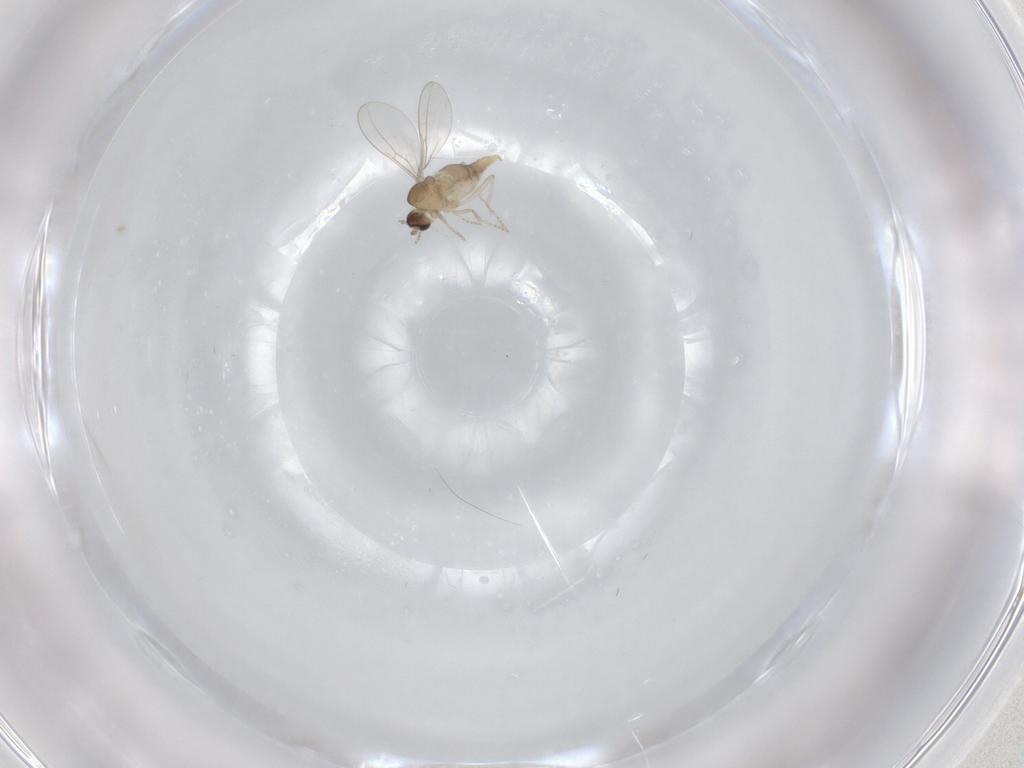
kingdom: Animalia
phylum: Arthropoda
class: Insecta
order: Diptera
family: Cecidomyiidae
